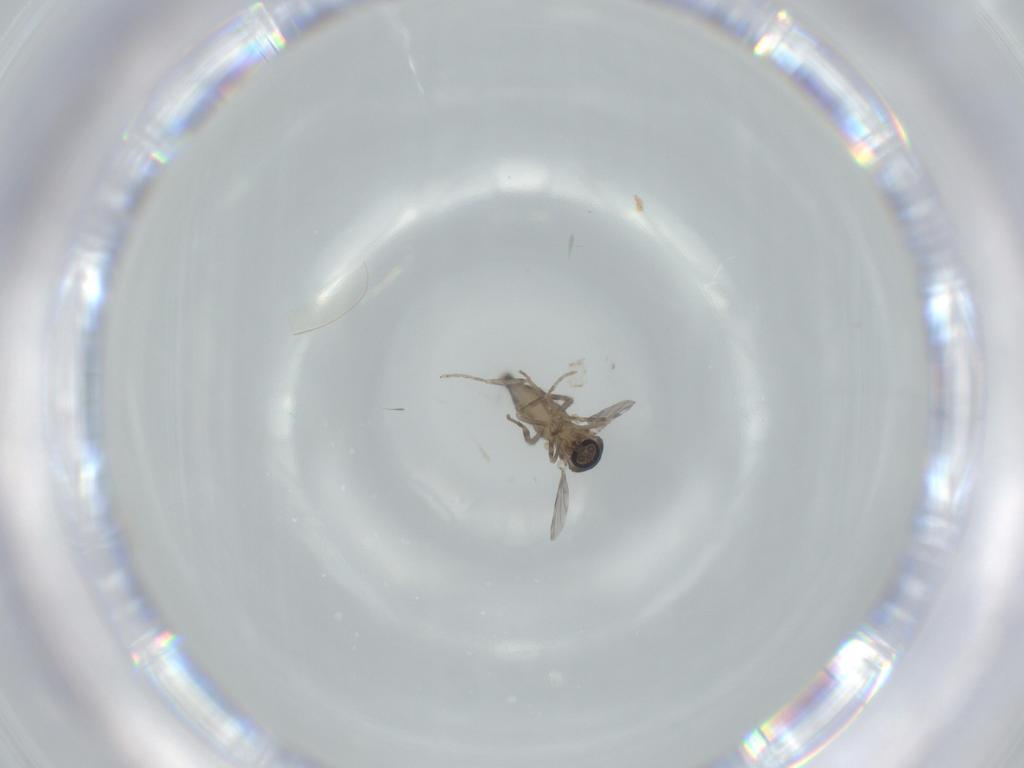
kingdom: Animalia
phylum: Arthropoda
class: Insecta
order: Diptera
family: Ceratopogonidae
